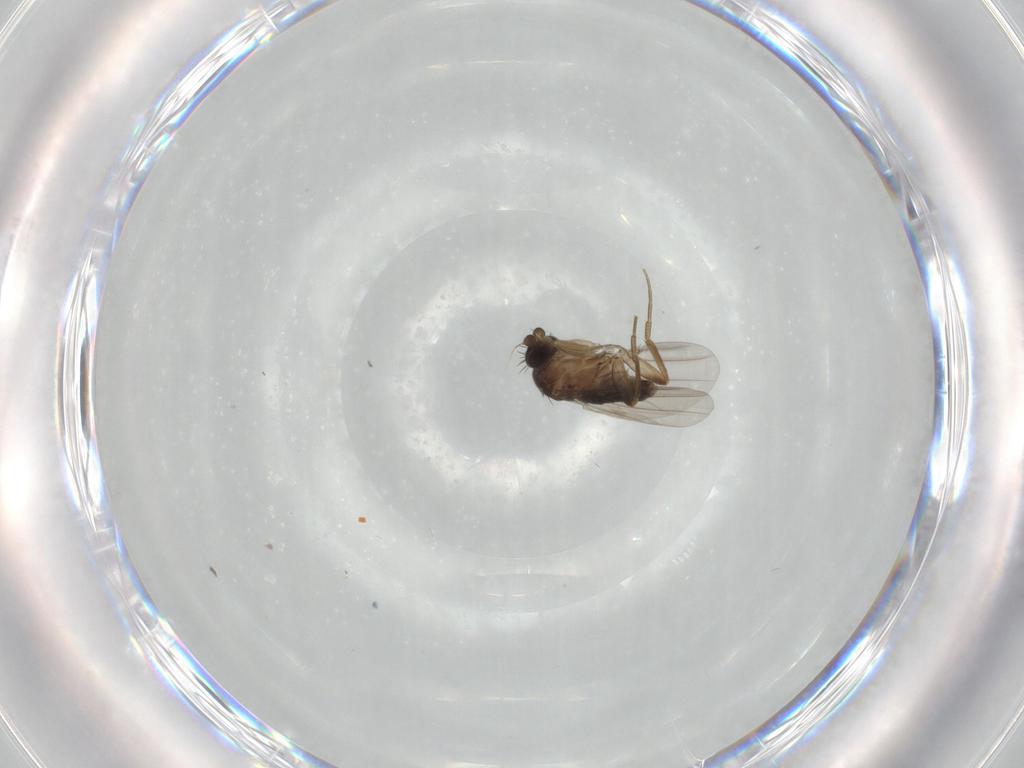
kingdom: Animalia
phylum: Arthropoda
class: Insecta
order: Diptera
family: Phoridae
